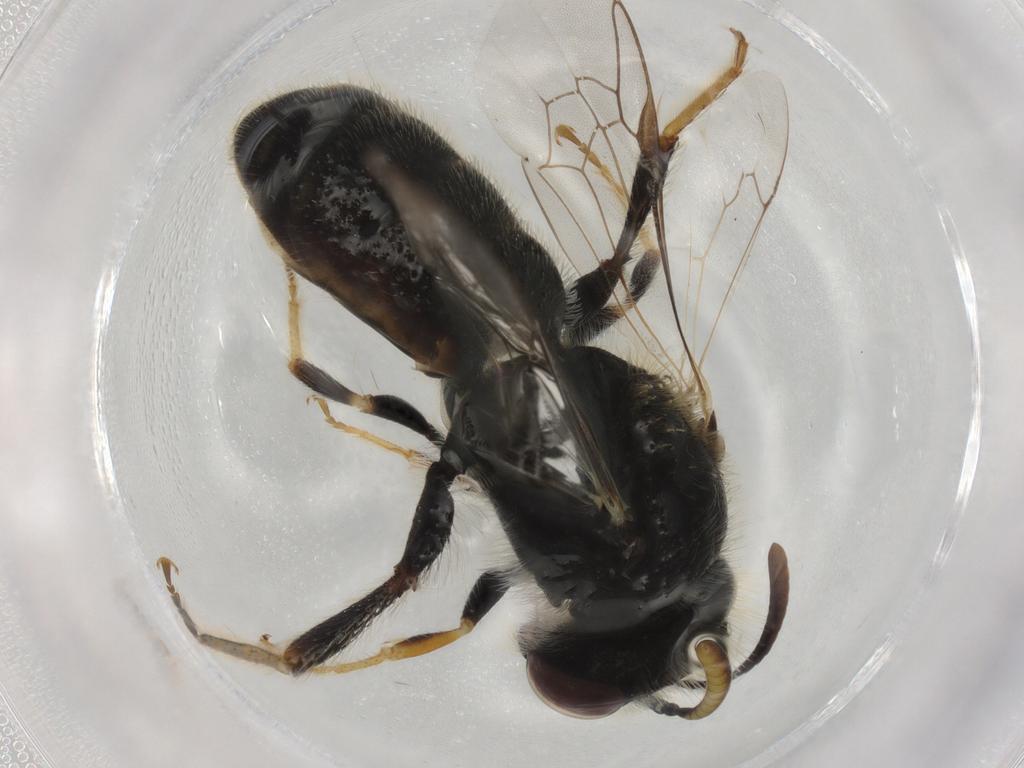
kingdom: Animalia
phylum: Arthropoda
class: Insecta
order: Hymenoptera
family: Colletidae
